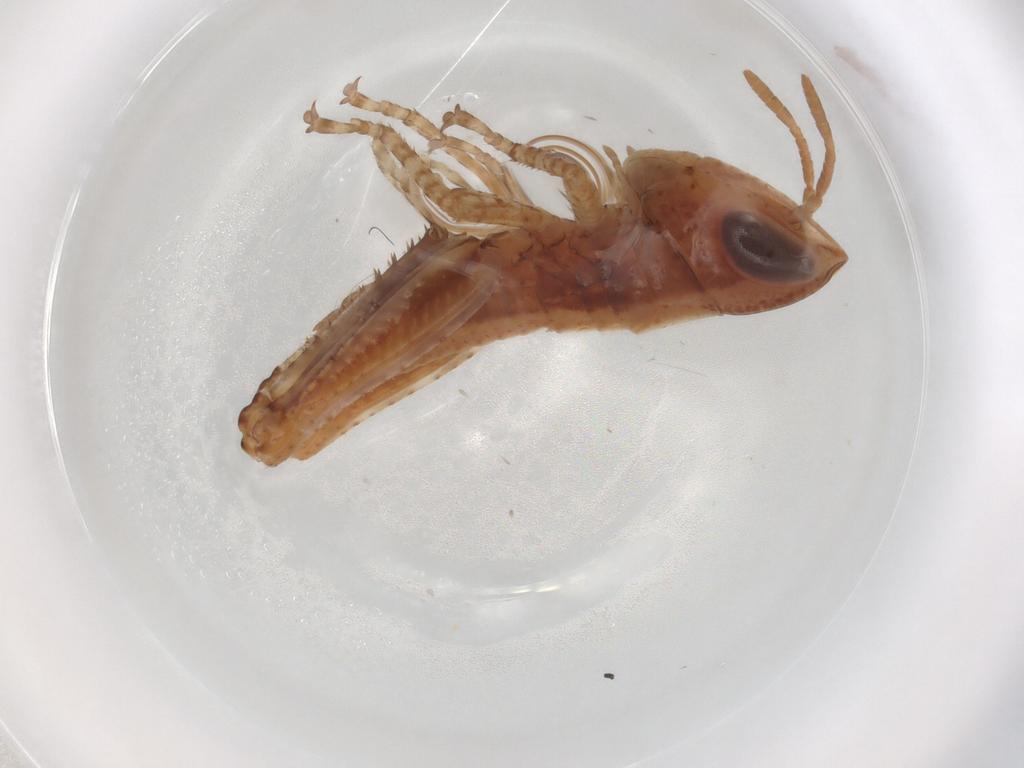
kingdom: Animalia
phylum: Arthropoda
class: Insecta
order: Orthoptera
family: Acrididae
